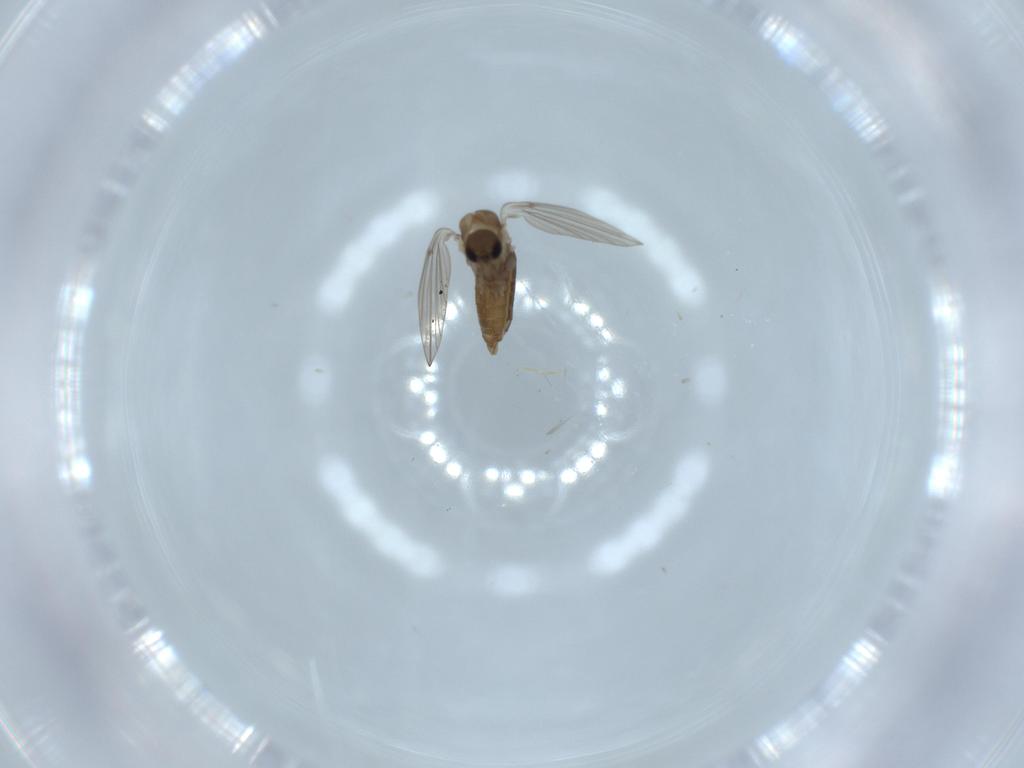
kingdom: Animalia
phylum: Arthropoda
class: Insecta
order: Diptera
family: Psychodidae
